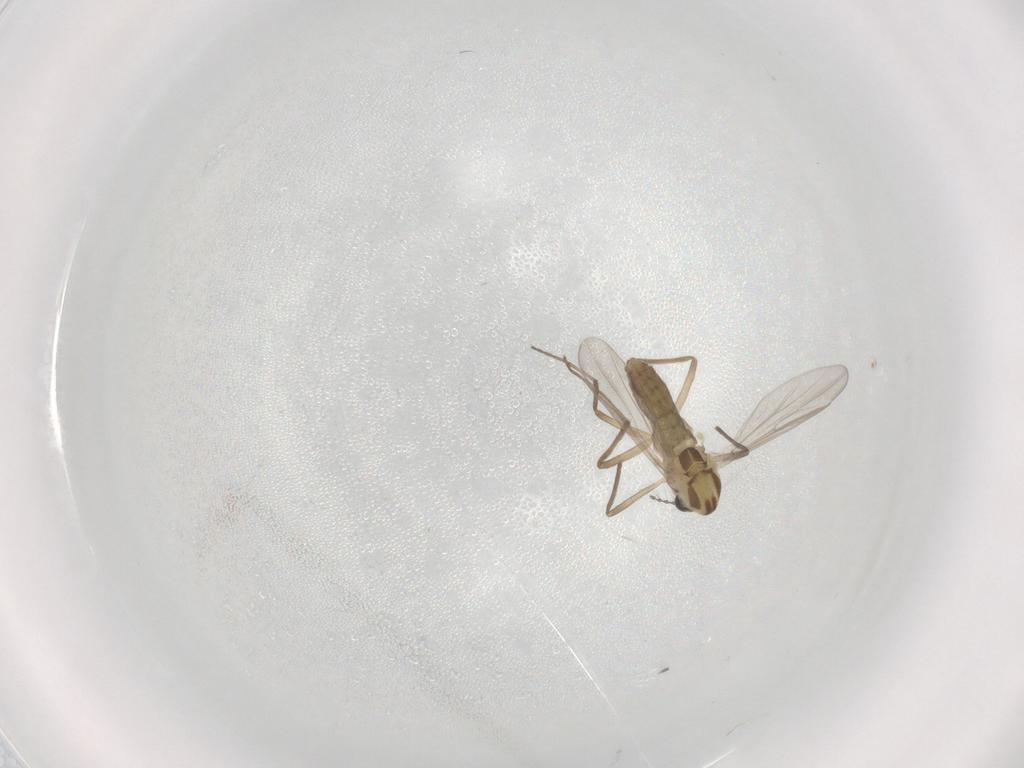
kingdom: Animalia
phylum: Arthropoda
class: Insecta
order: Diptera
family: Chironomidae
